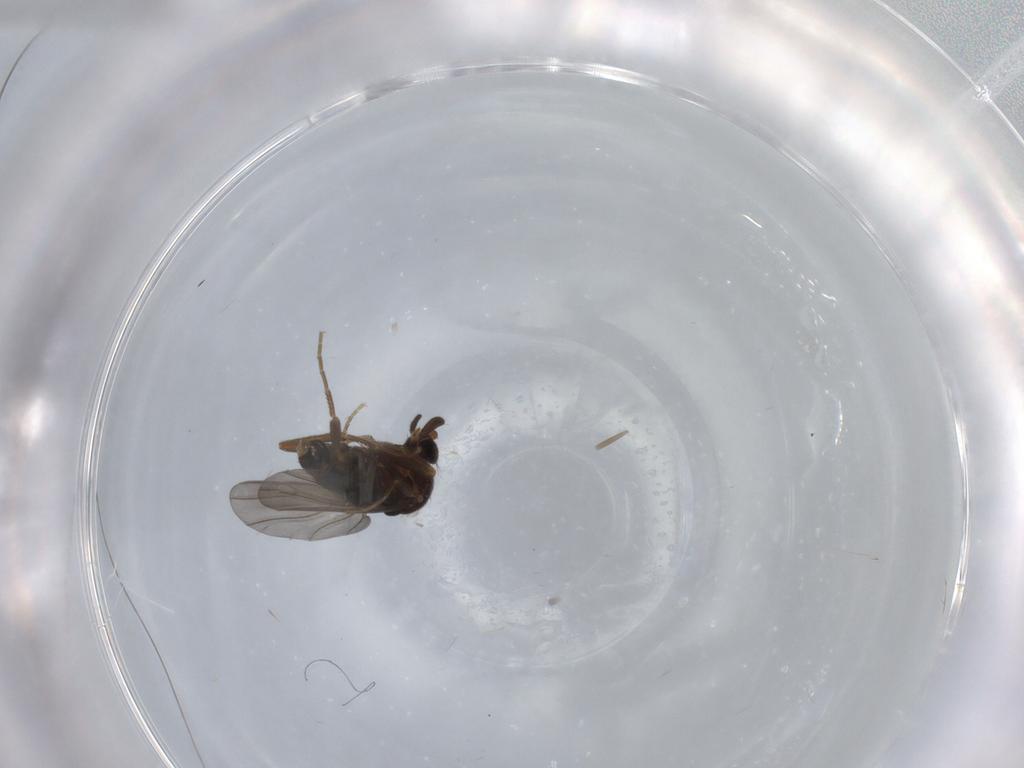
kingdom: Animalia
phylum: Arthropoda
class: Insecta
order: Diptera
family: Phoridae
